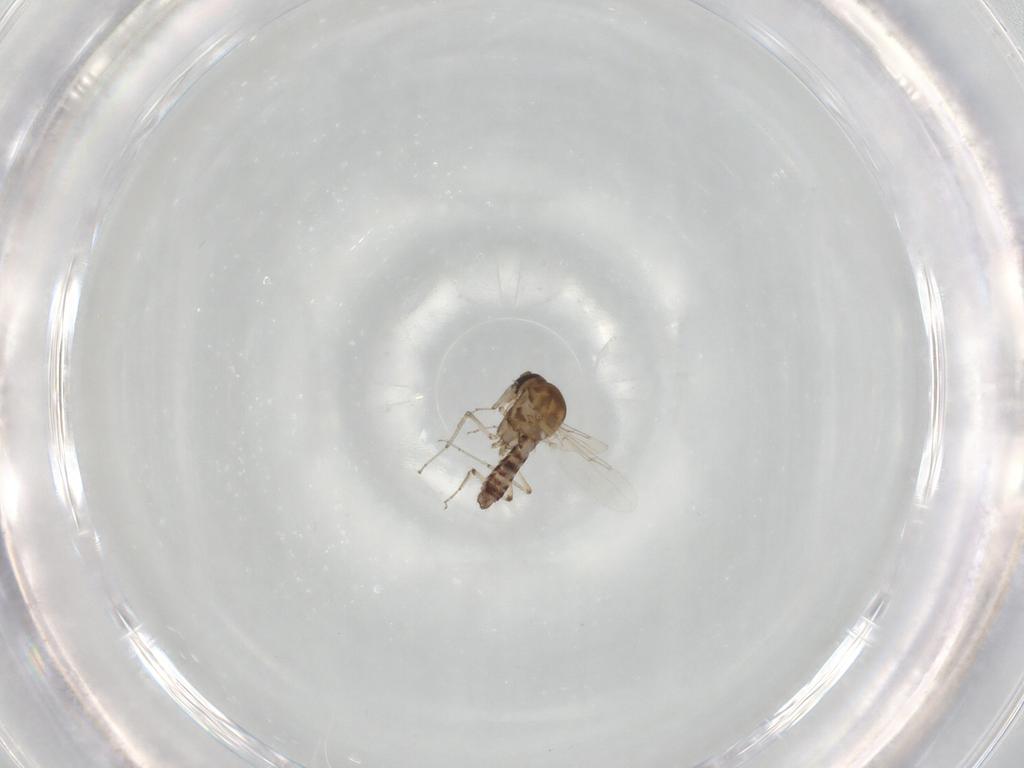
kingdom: Animalia
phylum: Arthropoda
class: Insecta
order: Diptera
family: Ceratopogonidae
